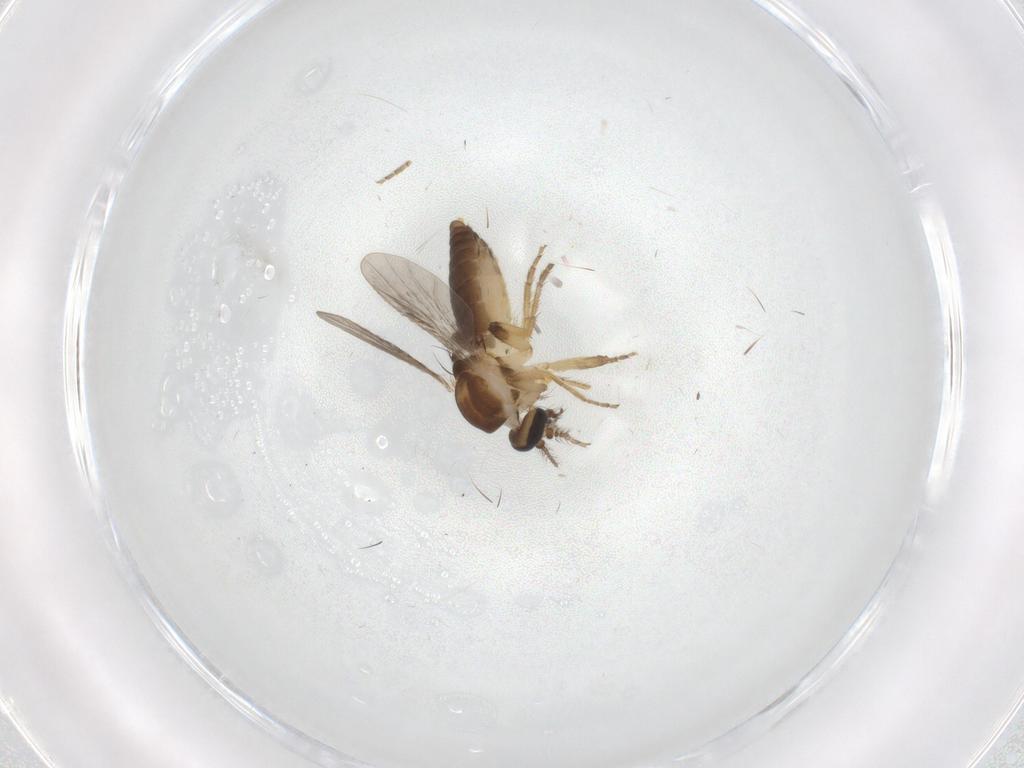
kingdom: Animalia
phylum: Arthropoda
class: Insecta
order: Diptera
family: Ceratopogonidae
